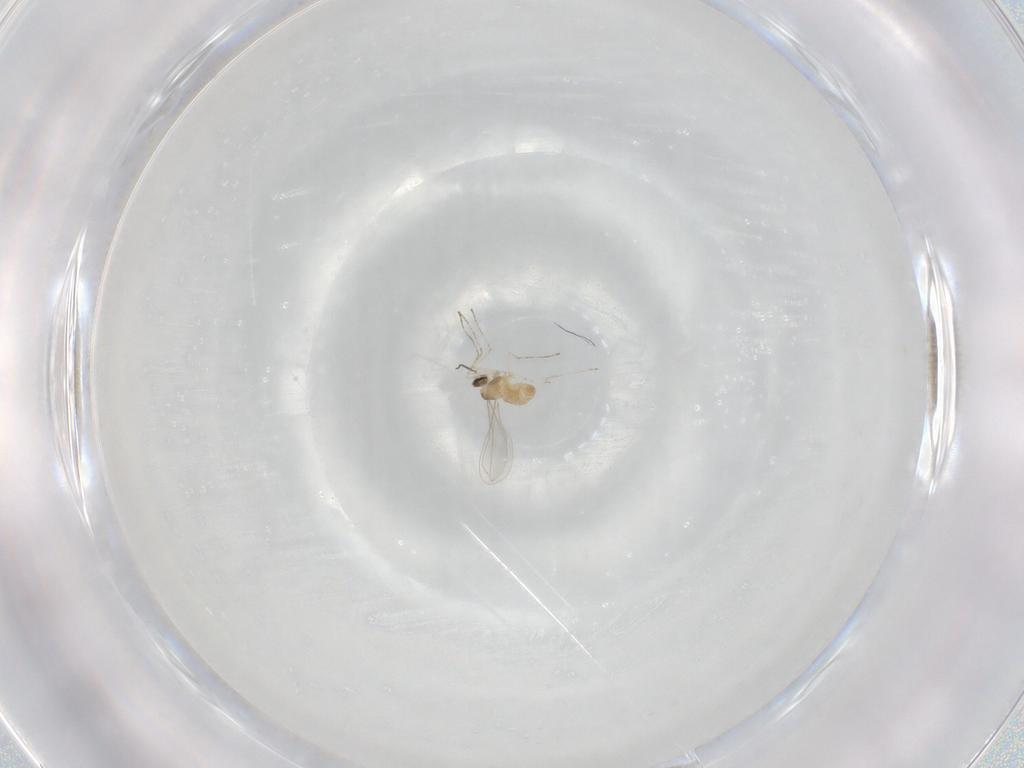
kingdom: Animalia
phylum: Arthropoda
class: Insecta
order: Diptera
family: Cecidomyiidae
